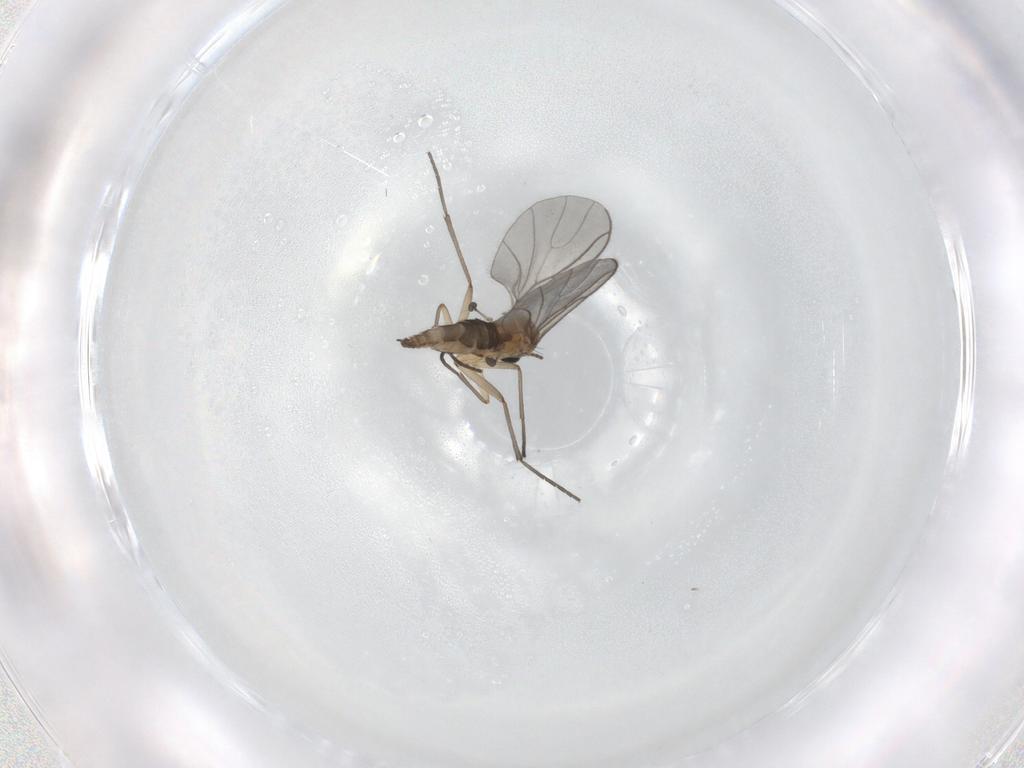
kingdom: Animalia
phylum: Arthropoda
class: Insecta
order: Diptera
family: Sciaridae
